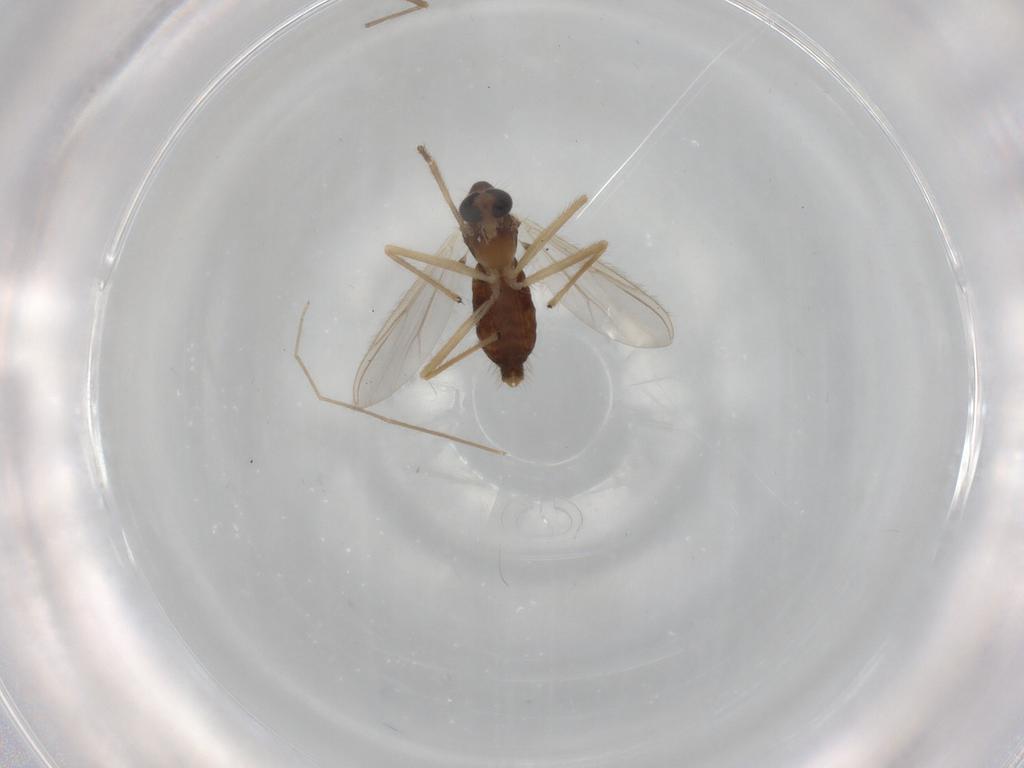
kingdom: Animalia
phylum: Arthropoda
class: Insecta
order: Diptera
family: Chironomidae
